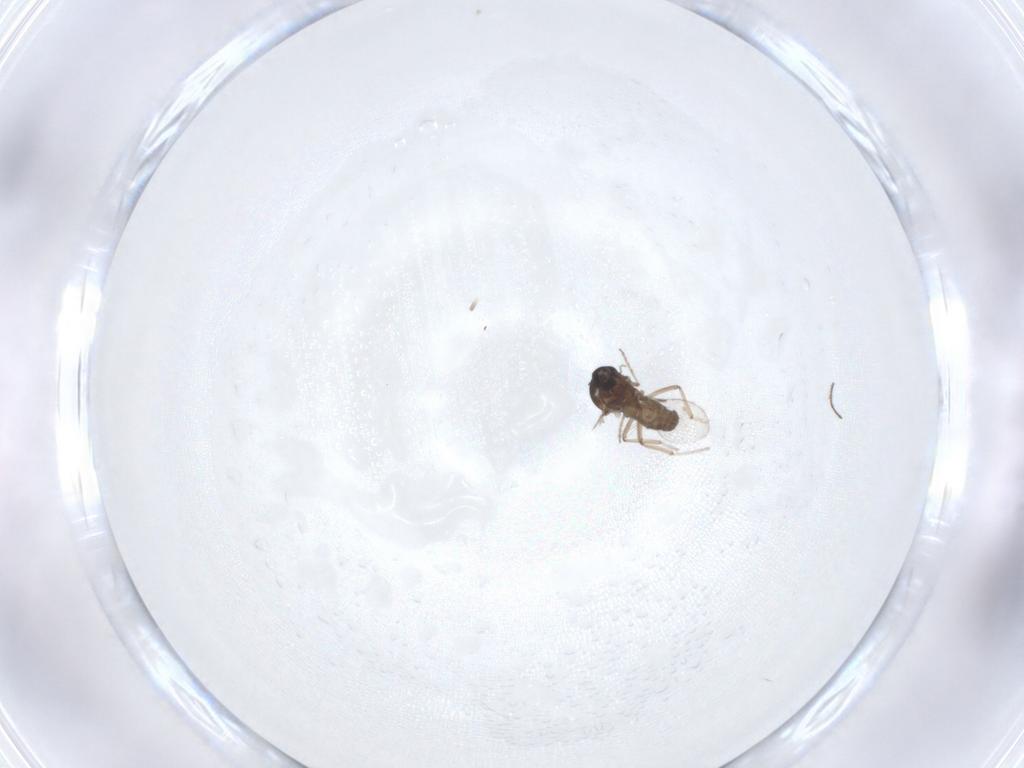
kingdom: Animalia
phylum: Arthropoda
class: Insecta
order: Diptera
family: Ceratopogonidae
